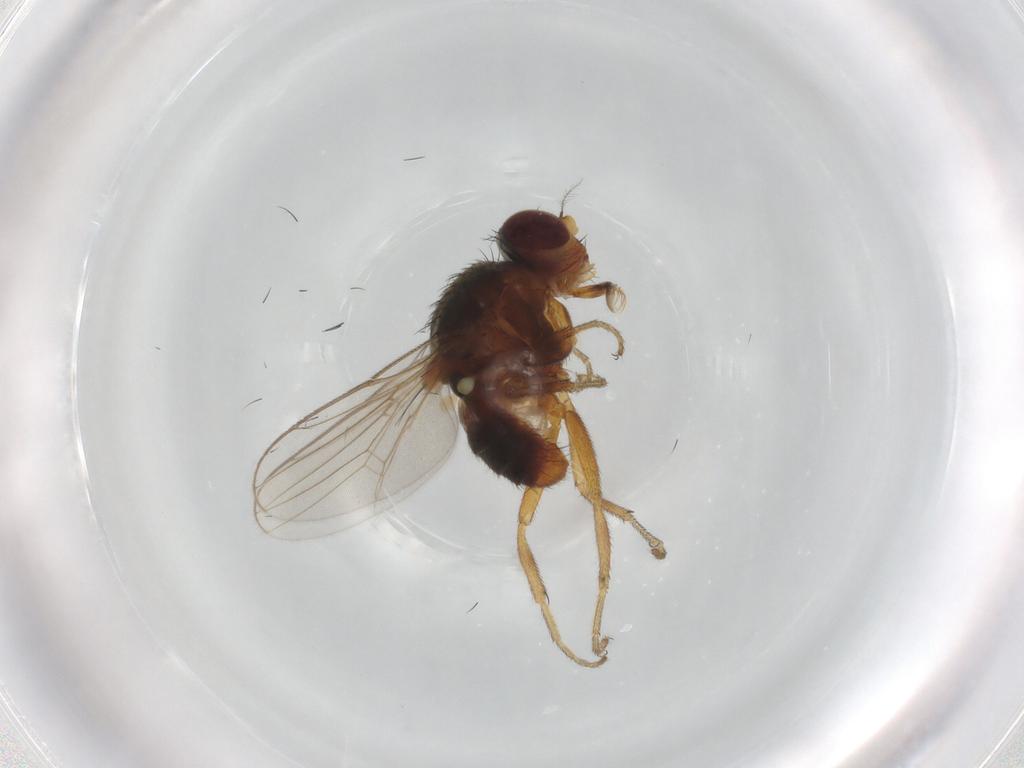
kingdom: Animalia
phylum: Arthropoda
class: Insecta
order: Diptera
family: Chloropidae
